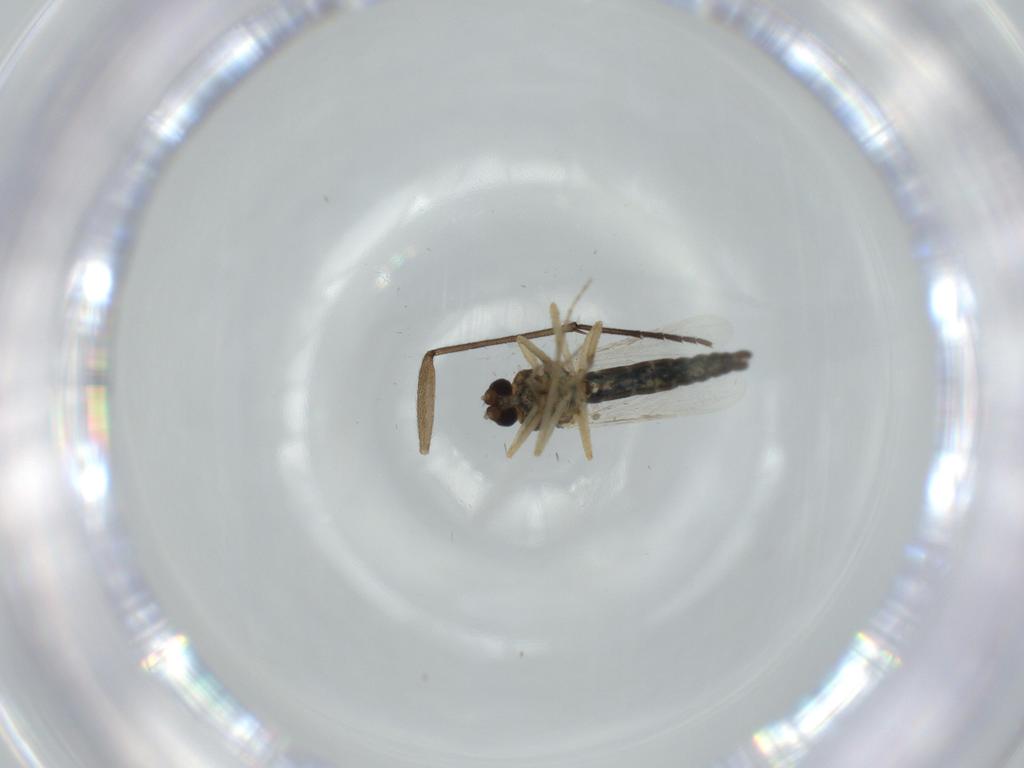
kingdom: Animalia
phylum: Arthropoda
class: Insecta
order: Diptera
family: Ceratopogonidae
